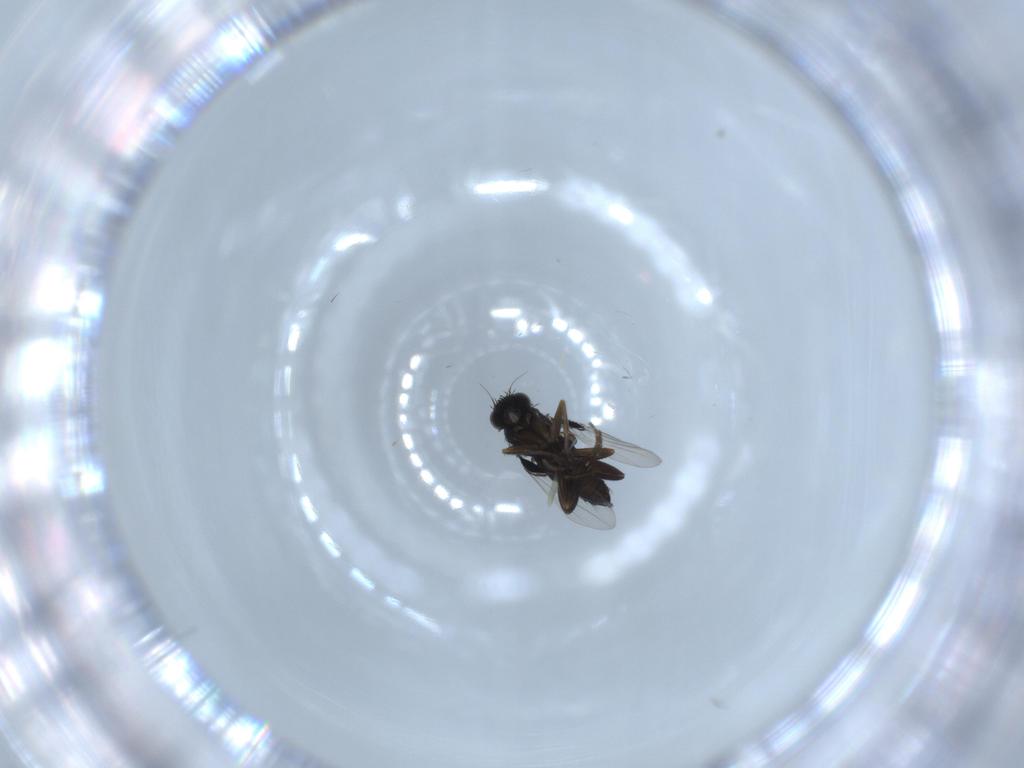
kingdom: Animalia
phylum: Arthropoda
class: Insecta
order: Diptera
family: Phoridae
